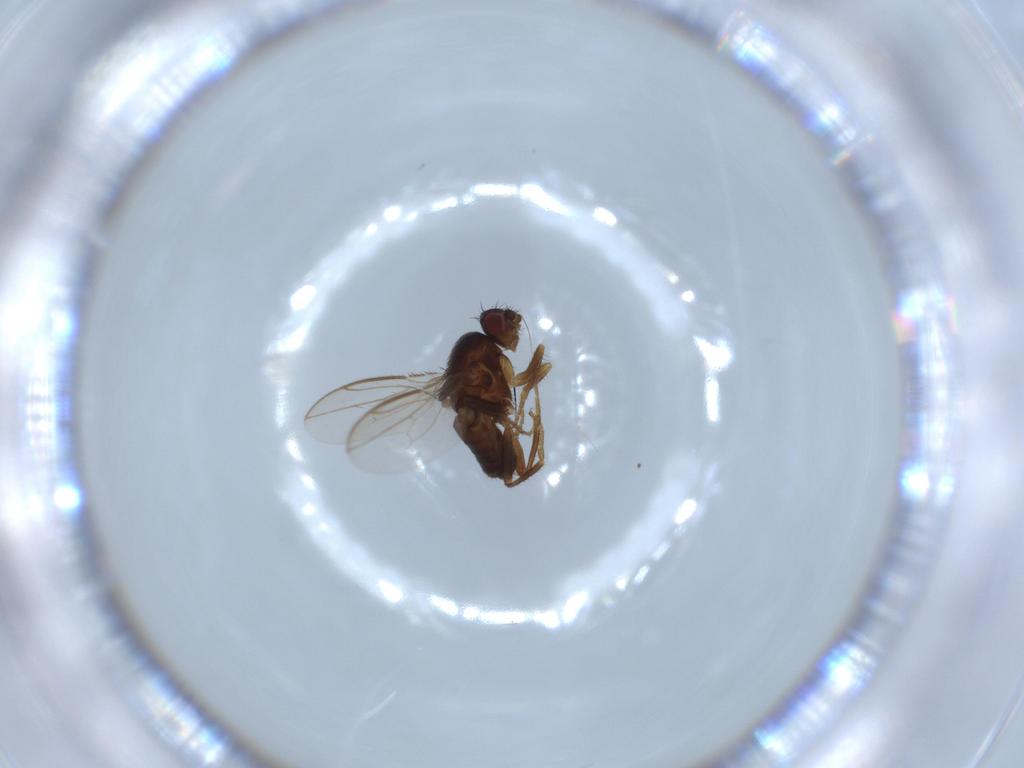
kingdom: Animalia
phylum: Arthropoda
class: Insecta
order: Diptera
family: Sphaeroceridae
